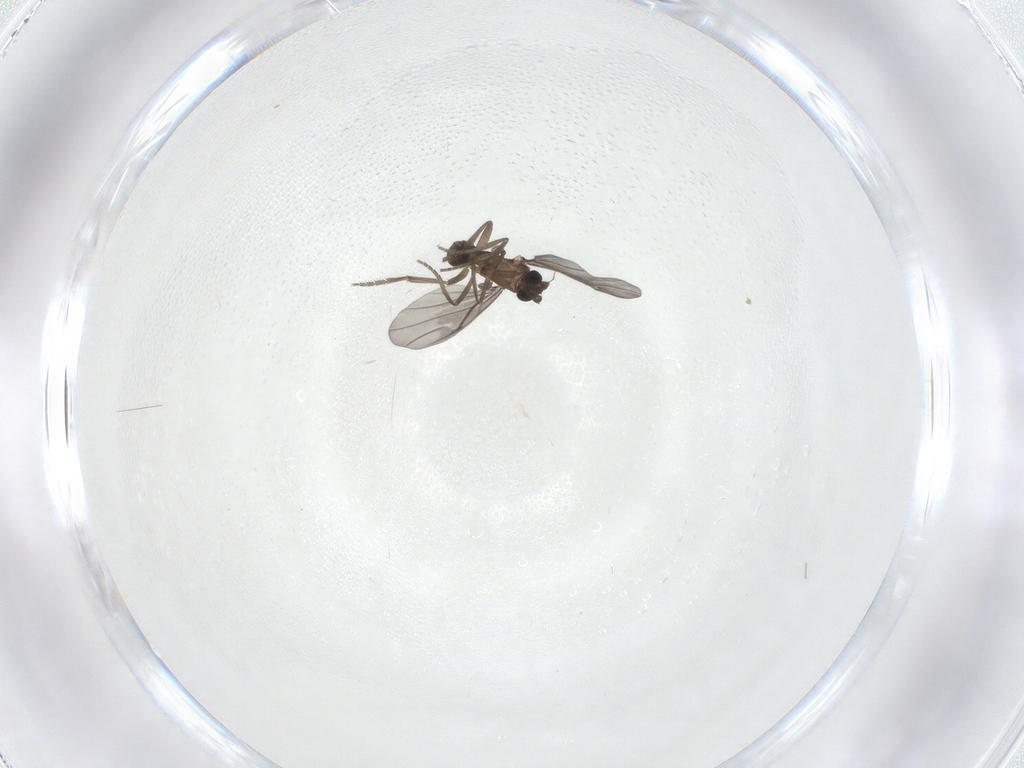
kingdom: Animalia
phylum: Arthropoda
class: Insecta
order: Diptera
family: Phoridae
